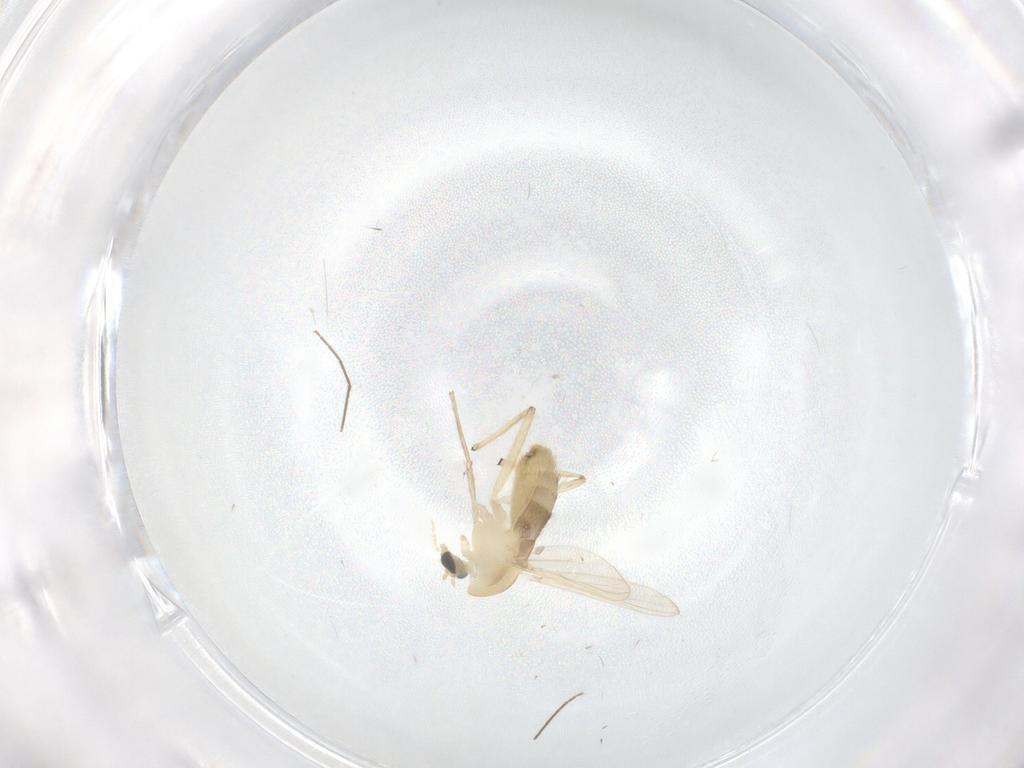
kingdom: Animalia
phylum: Arthropoda
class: Insecta
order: Diptera
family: Chironomidae
